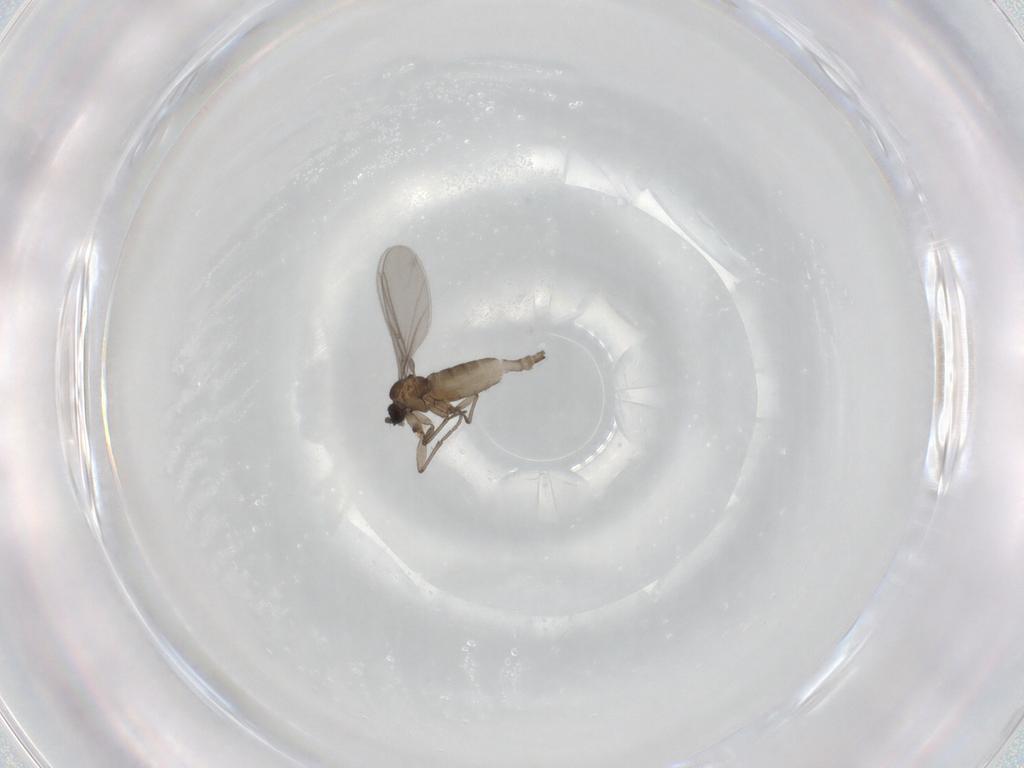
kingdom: Animalia
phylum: Arthropoda
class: Insecta
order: Diptera
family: Sciaridae
